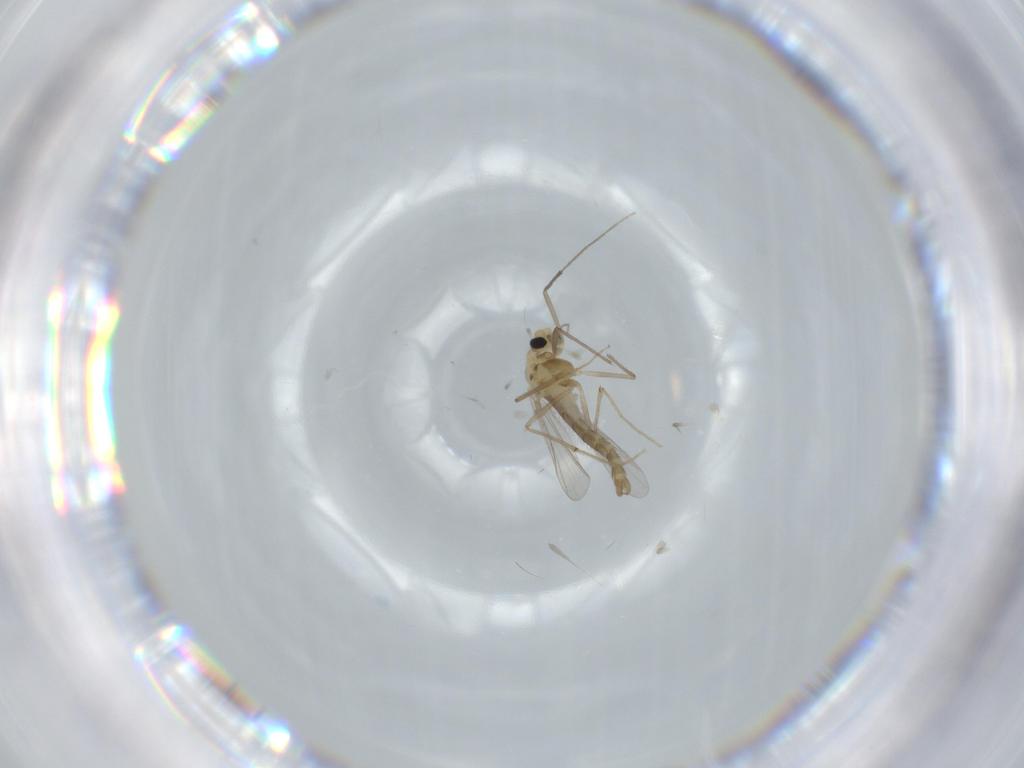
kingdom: Animalia
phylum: Arthropoda
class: Insecta
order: Diptera
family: Chironomidae
